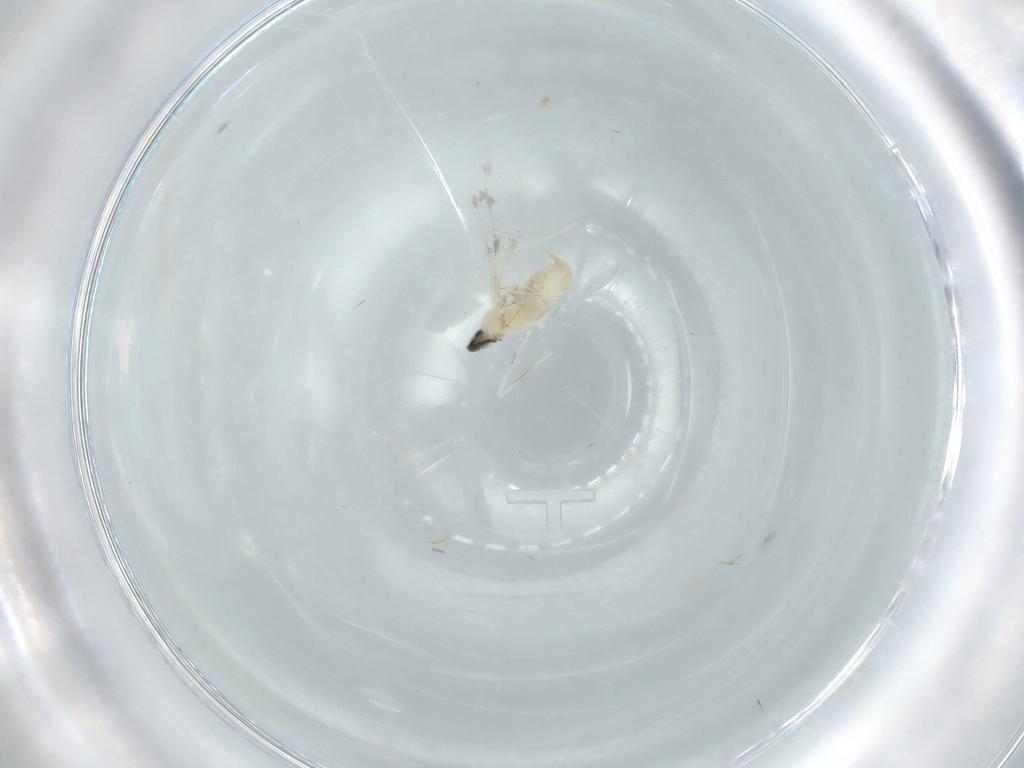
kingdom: Animalia
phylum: Arthropoda
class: Insecta
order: Diptera
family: Cecidomyiidae
